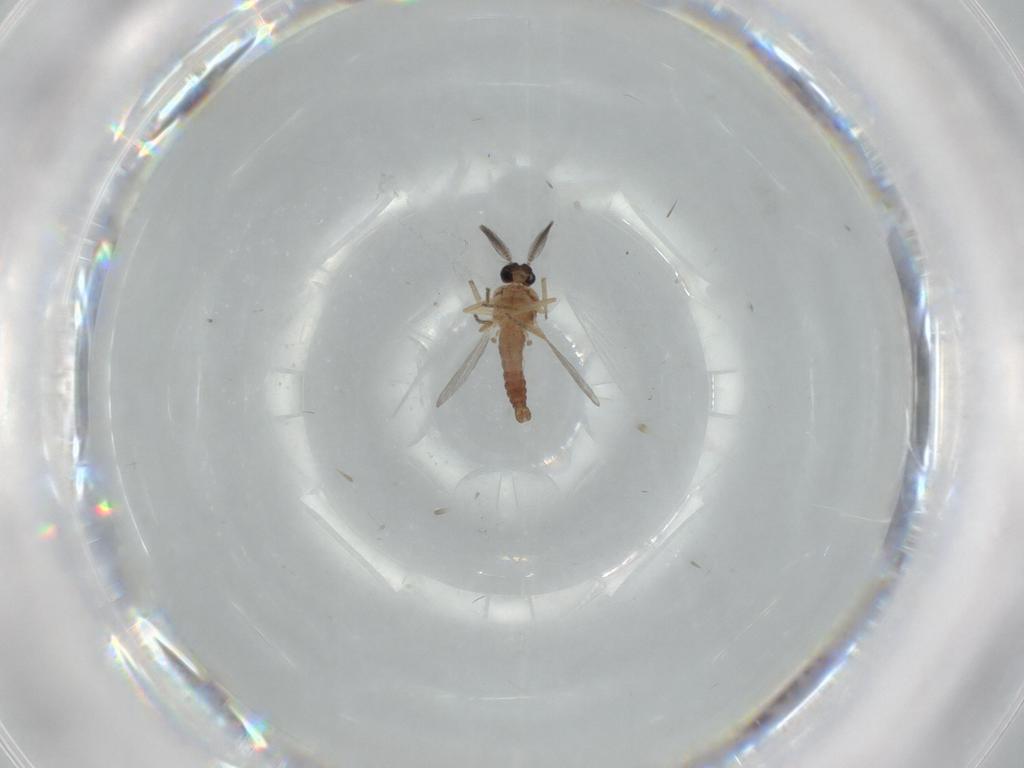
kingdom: Animalia
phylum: Arthropoda
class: Insecta
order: Diptera
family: Ceratopogonidae
